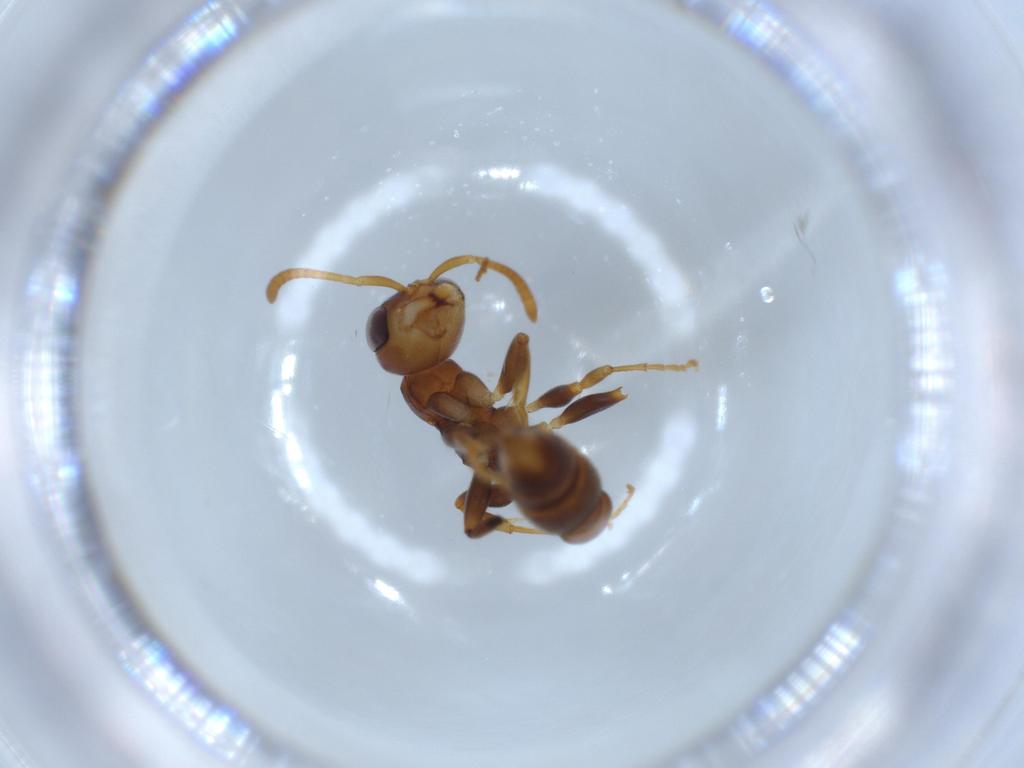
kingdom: Animalia
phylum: Arthropoda
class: Insecta
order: Hymenoptera
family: Formicidae
